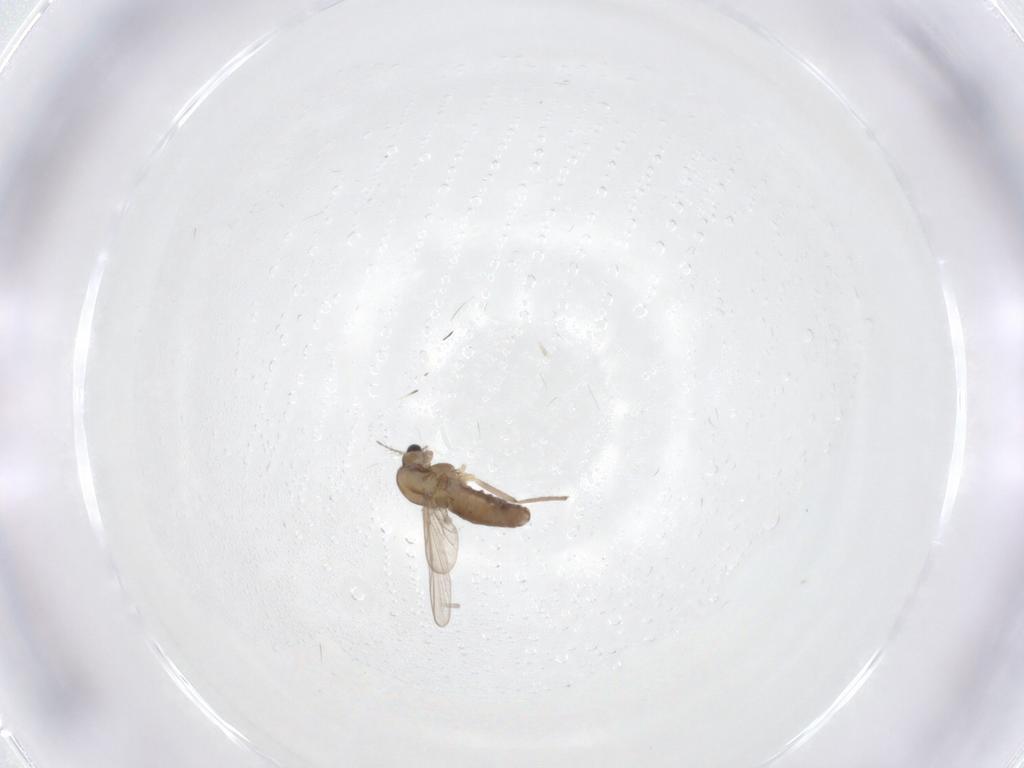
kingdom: Animalia
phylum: Arthropoda
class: Insecta
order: Diptera
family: Chironomidae
